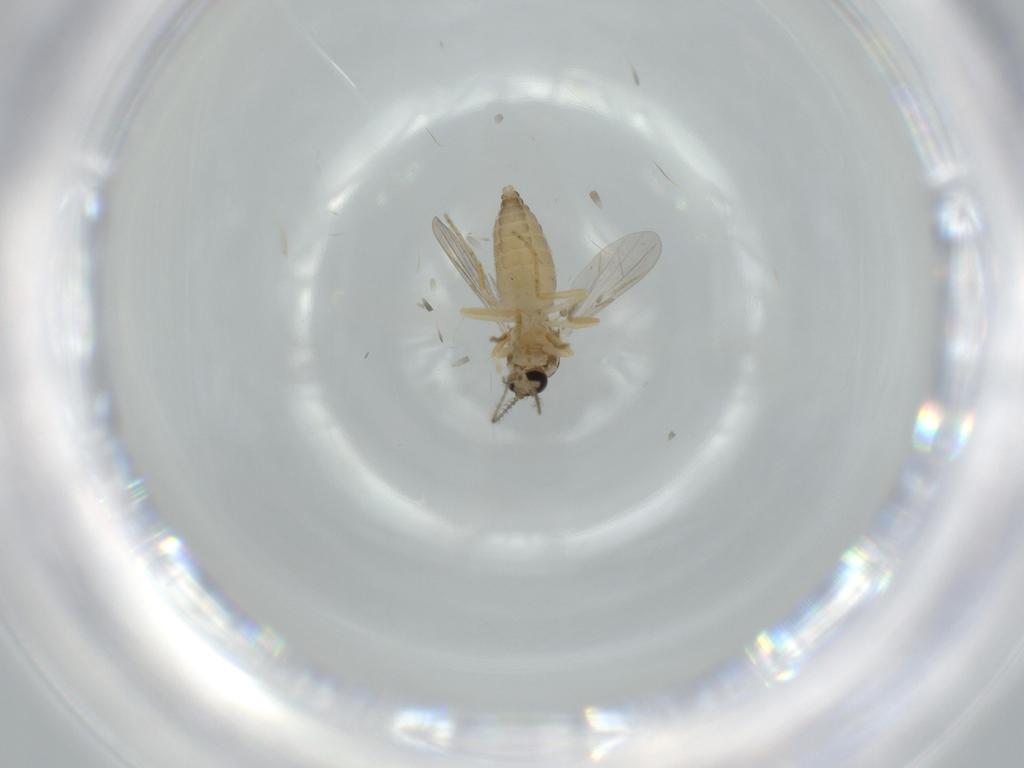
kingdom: Animalia
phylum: Arthropoda
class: Insecta
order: Diptera
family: Ceratopogonidae
